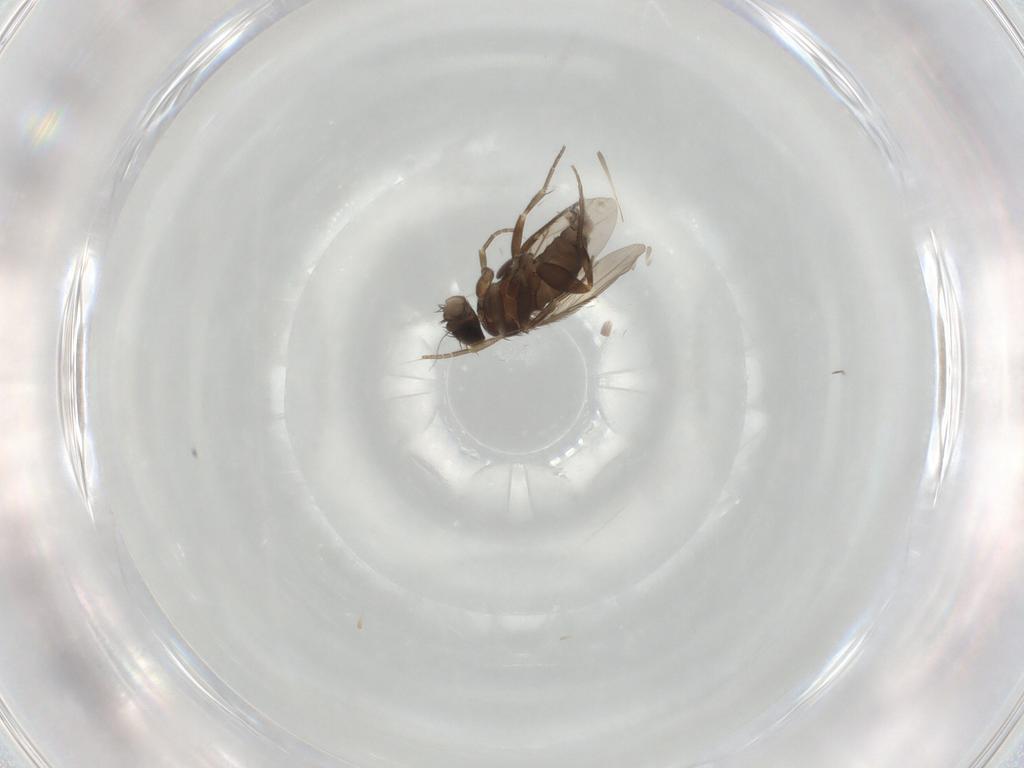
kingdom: Animalia
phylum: Arthropoda
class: Insecta
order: Diptera
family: Phoridae
